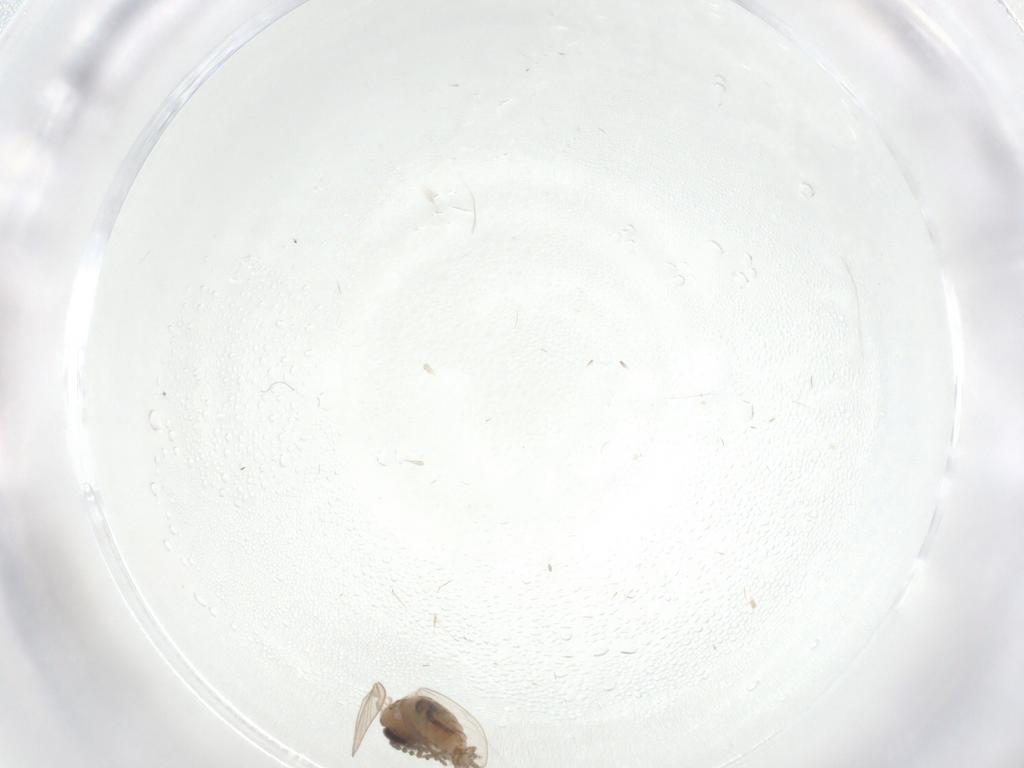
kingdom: Animalia
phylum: Arthropoda
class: Insecta
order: Diptera
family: Psychodidae
